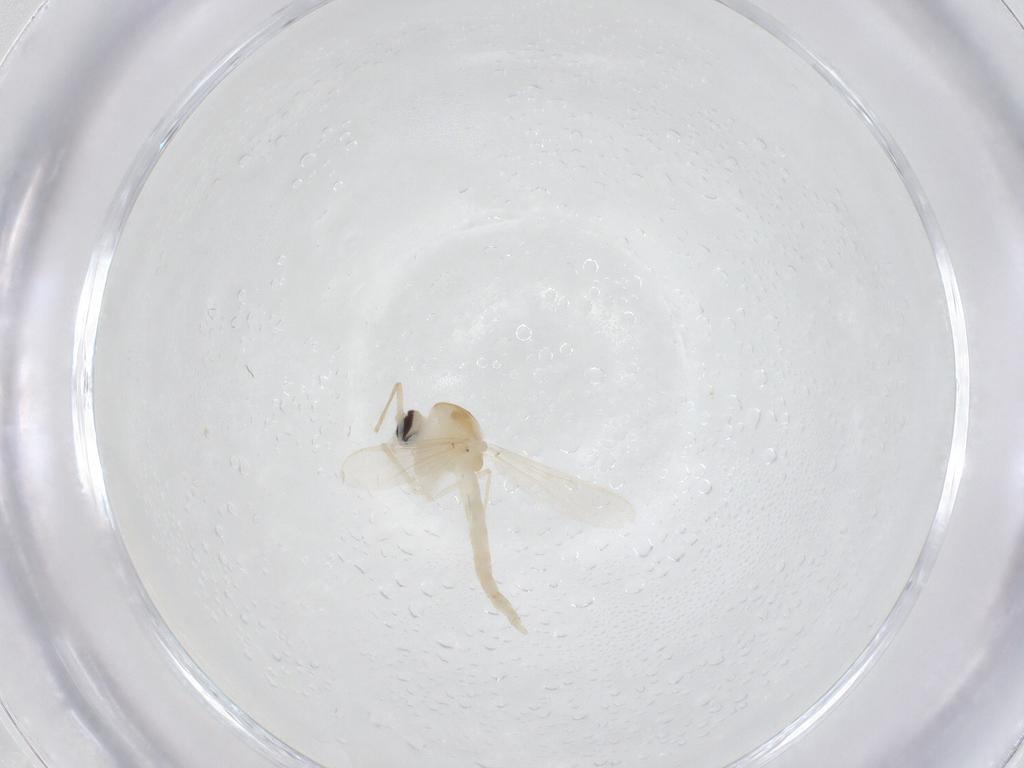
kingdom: Animalia
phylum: Arthropoda
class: Insecta
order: Diptera
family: Chironomidae
